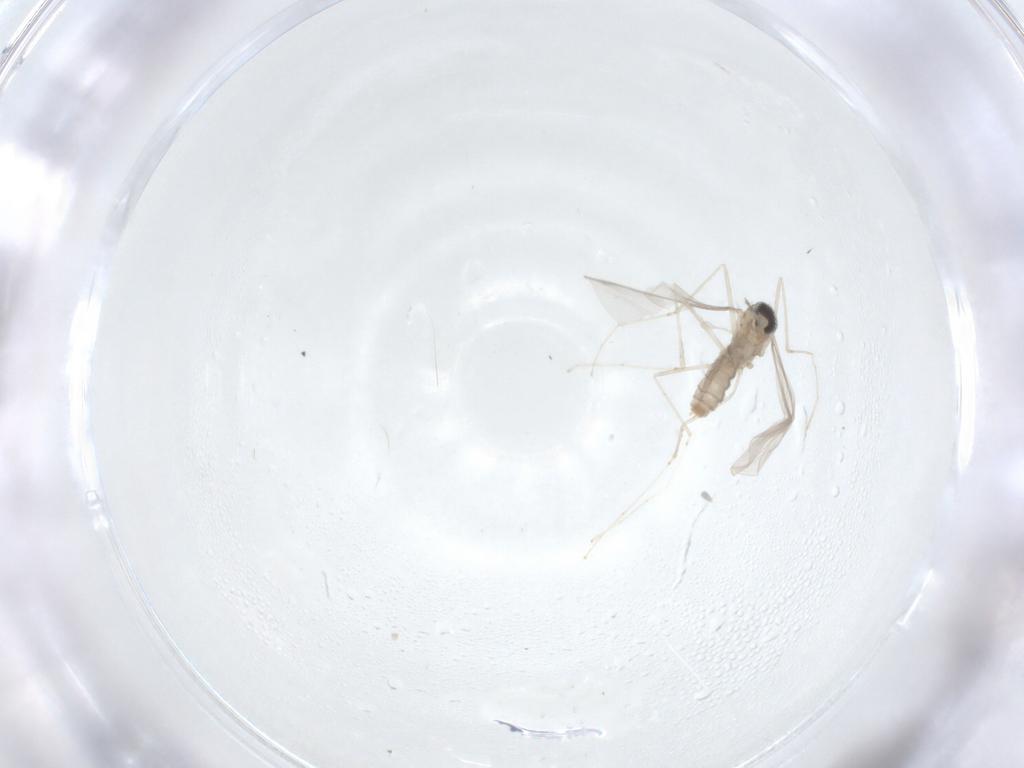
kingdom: Animalia
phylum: Arthropoda
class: Insecta
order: Diptera
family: Cecidomyiidae
